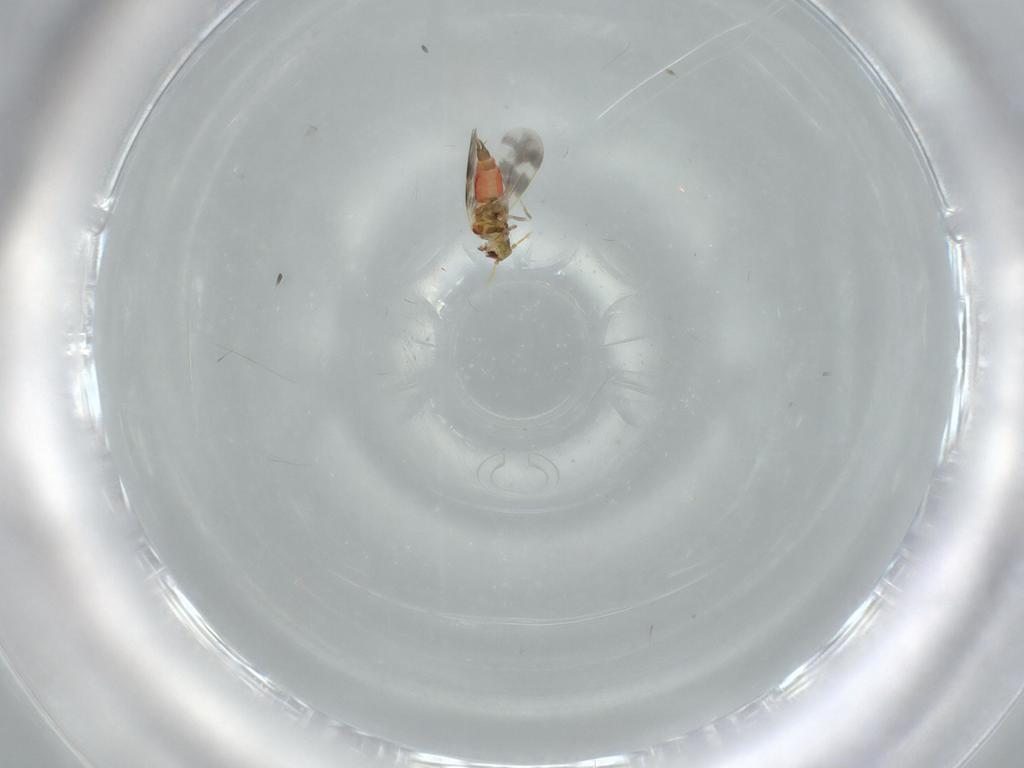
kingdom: Animalia
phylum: Arthropoda
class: Insecta
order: Hemiptera
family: Aleyrodidae
